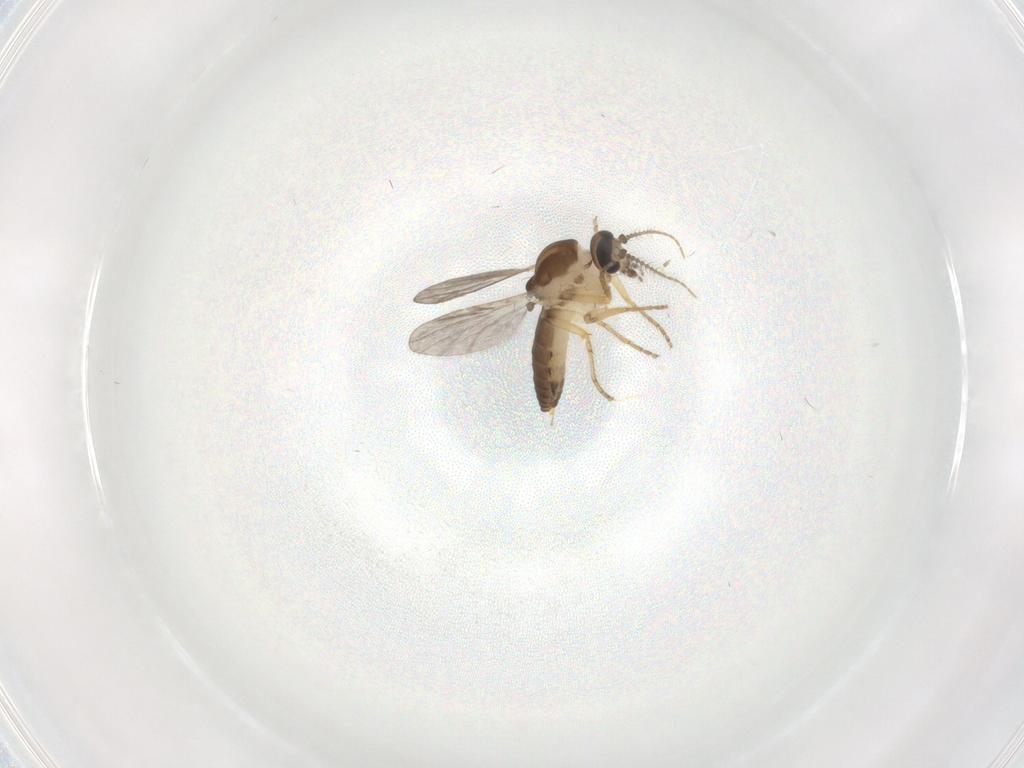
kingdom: Animalia
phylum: Arthropoda
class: Insecta
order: Diptera
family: Ceratopogonidae
